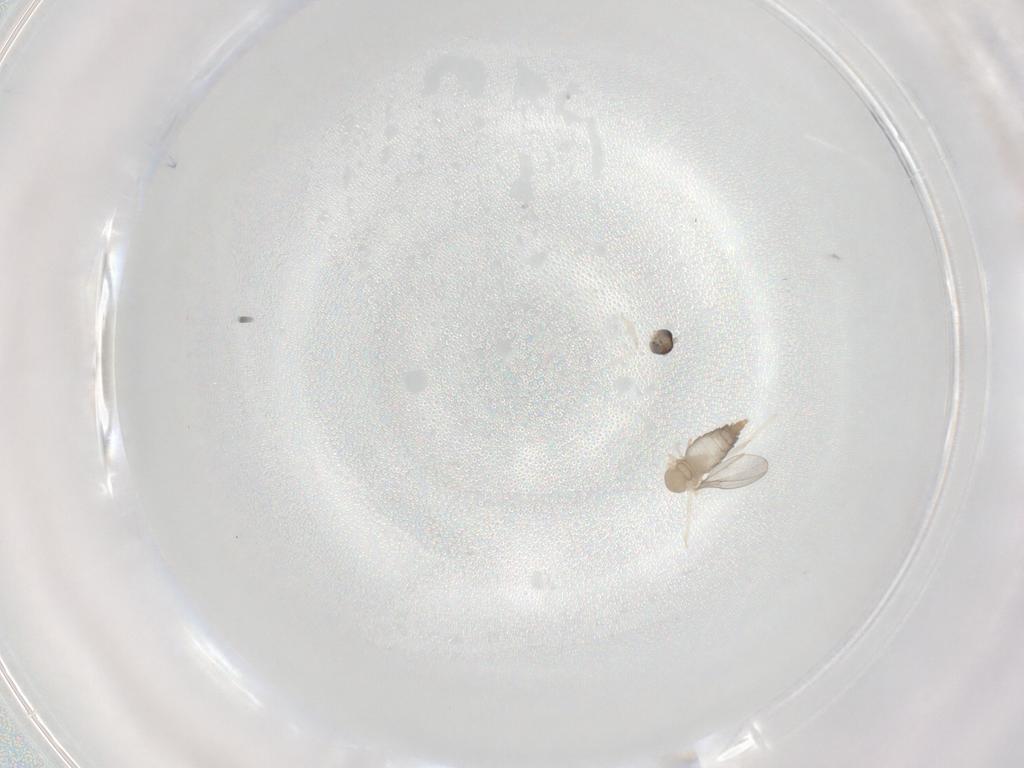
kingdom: Animalia
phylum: Arthropoda
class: Insecta
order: Diptera
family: Cecidomyiidae
